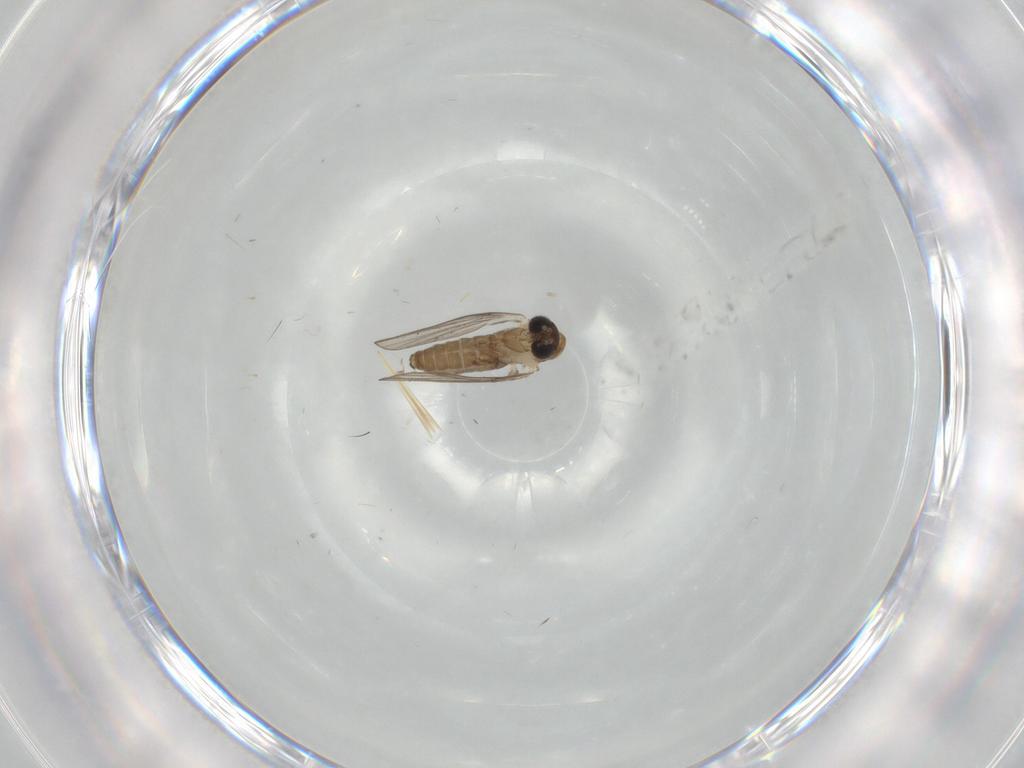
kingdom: Animalia
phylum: Arthropoda
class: Insecta
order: Diptera
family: Psychodidae
